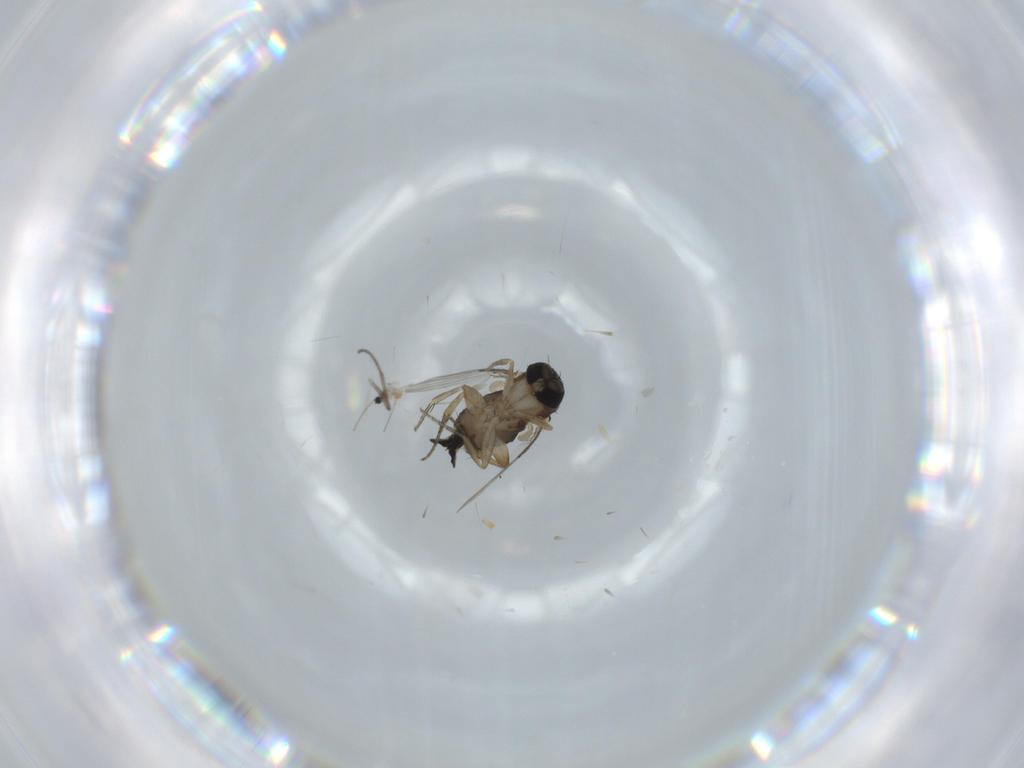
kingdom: Animalia
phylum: Arthropoda
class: Insecta
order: Diptera
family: Phoridae
